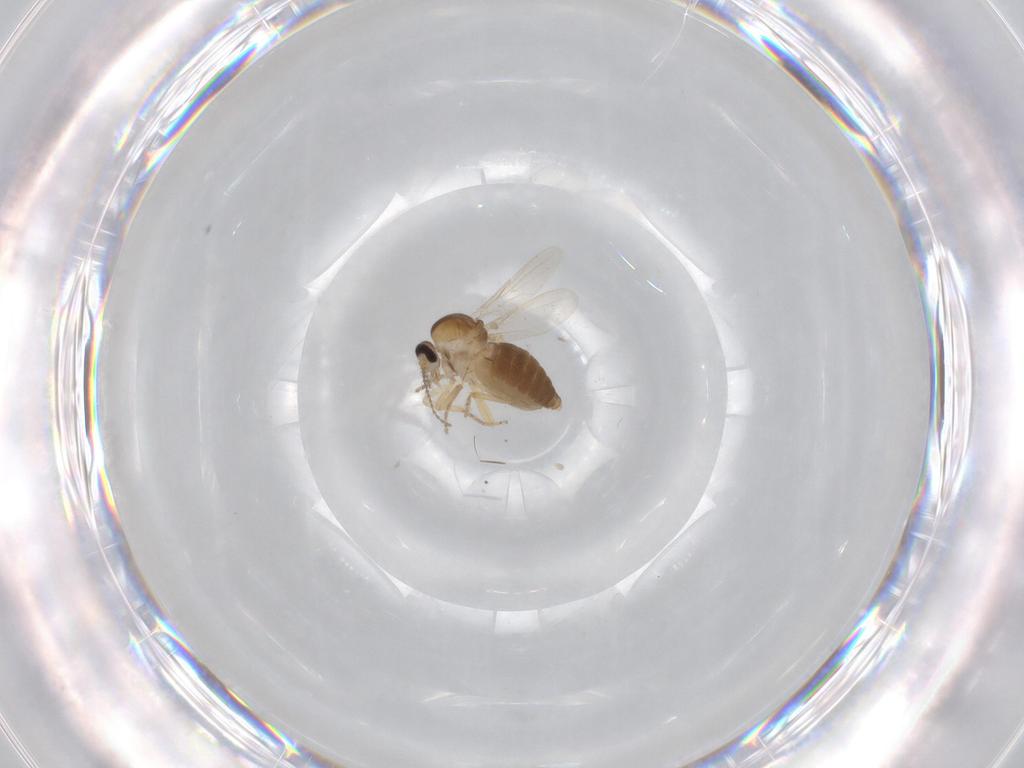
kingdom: Animalia
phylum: Arthropoda
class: Insecta
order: Diptera
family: Ceratopogonidae
